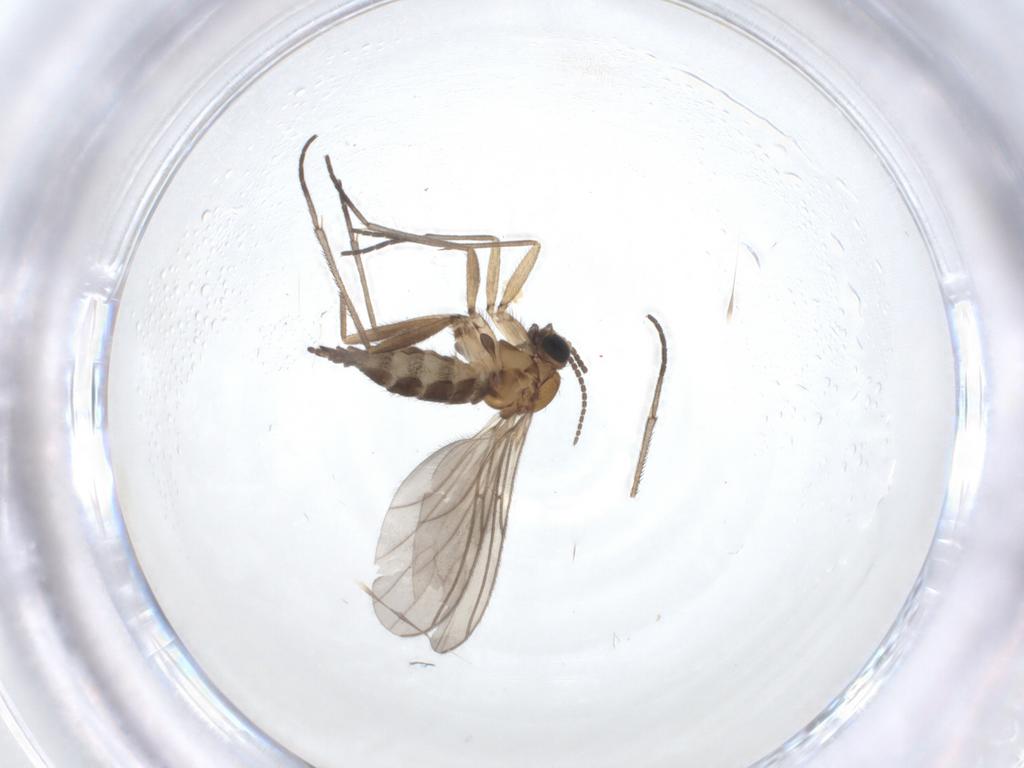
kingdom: Animalia
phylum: Arthropoda
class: Insecta
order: Diptera
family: Sciaridae
